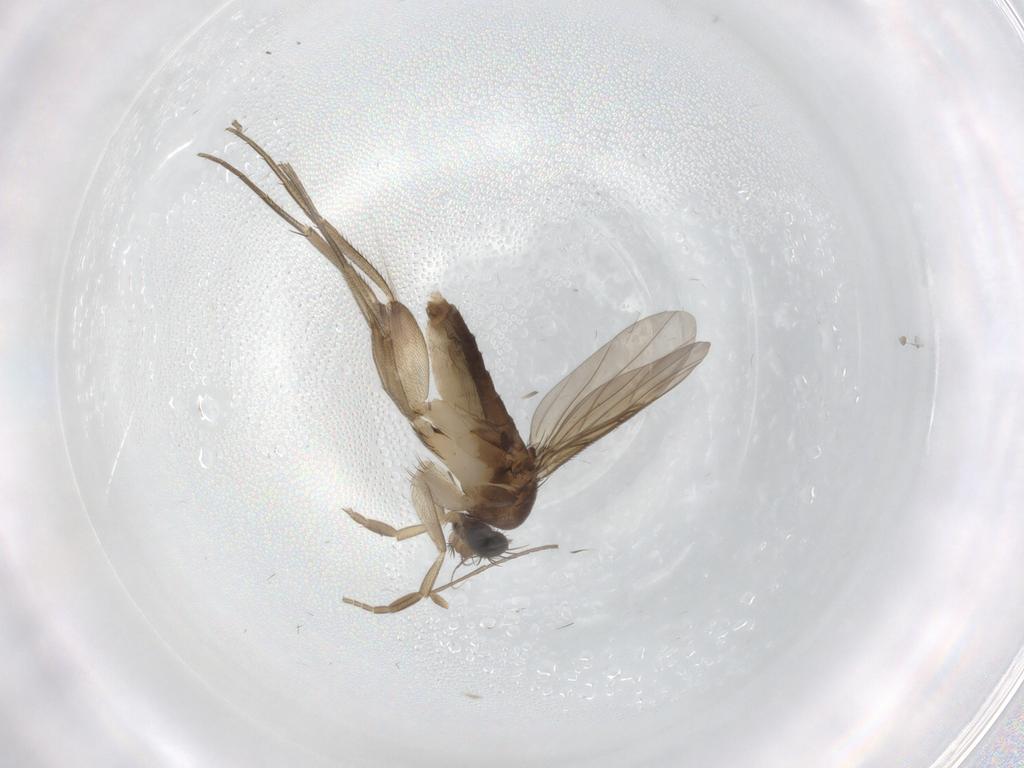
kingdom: Animalia
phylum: Arthropoda
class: Insecta
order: Diptera
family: Phoridae
